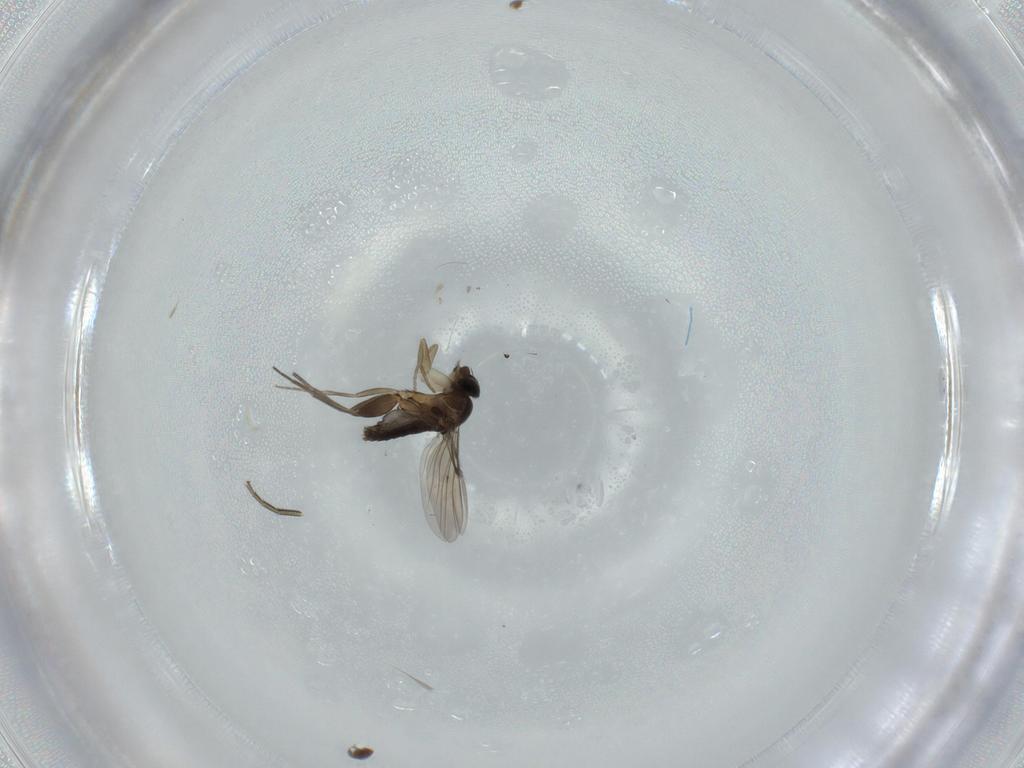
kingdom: Animalia
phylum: Arthropoda
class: Insecta
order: Diptera
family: Phoridae
